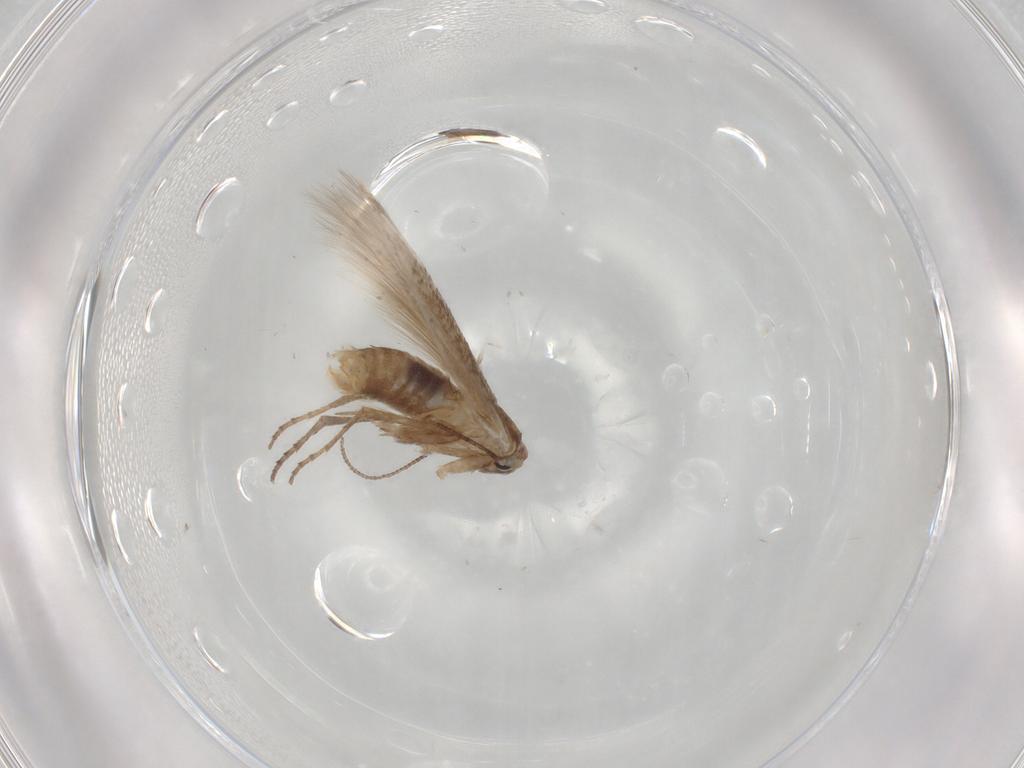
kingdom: Animalia
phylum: Arthropoda
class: Insecta
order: Lepidoptera
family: Bucculatricidae
